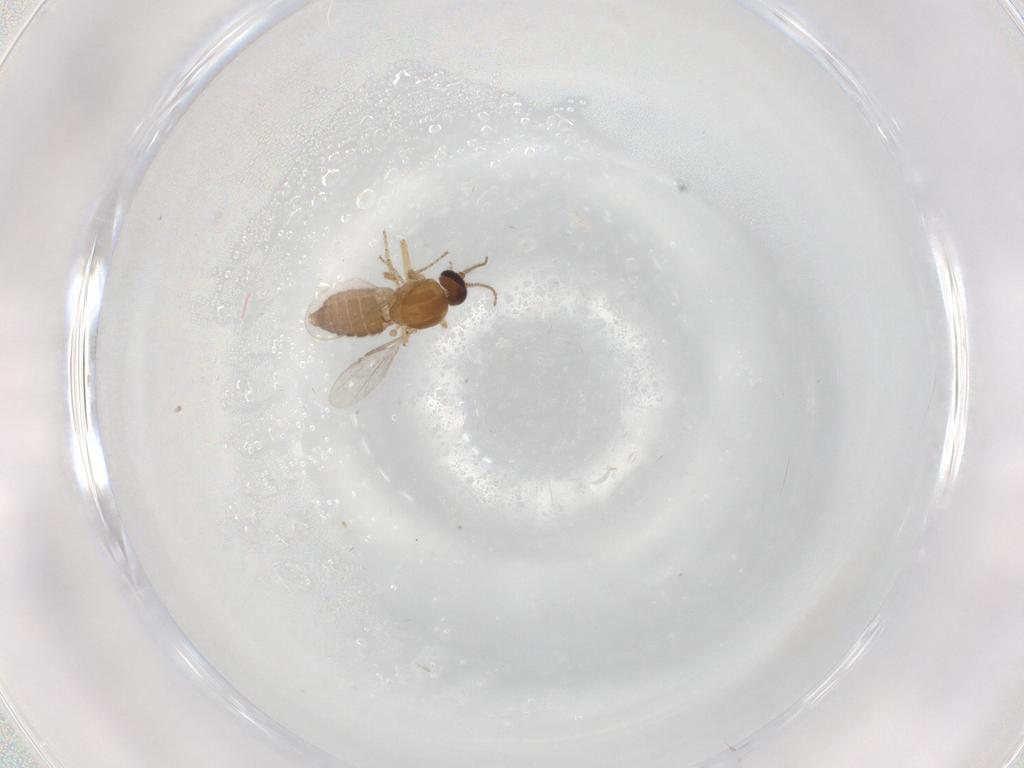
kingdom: Animalia
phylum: Arthropoda
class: Insecta
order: Diptera
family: Ceratopogonidae
